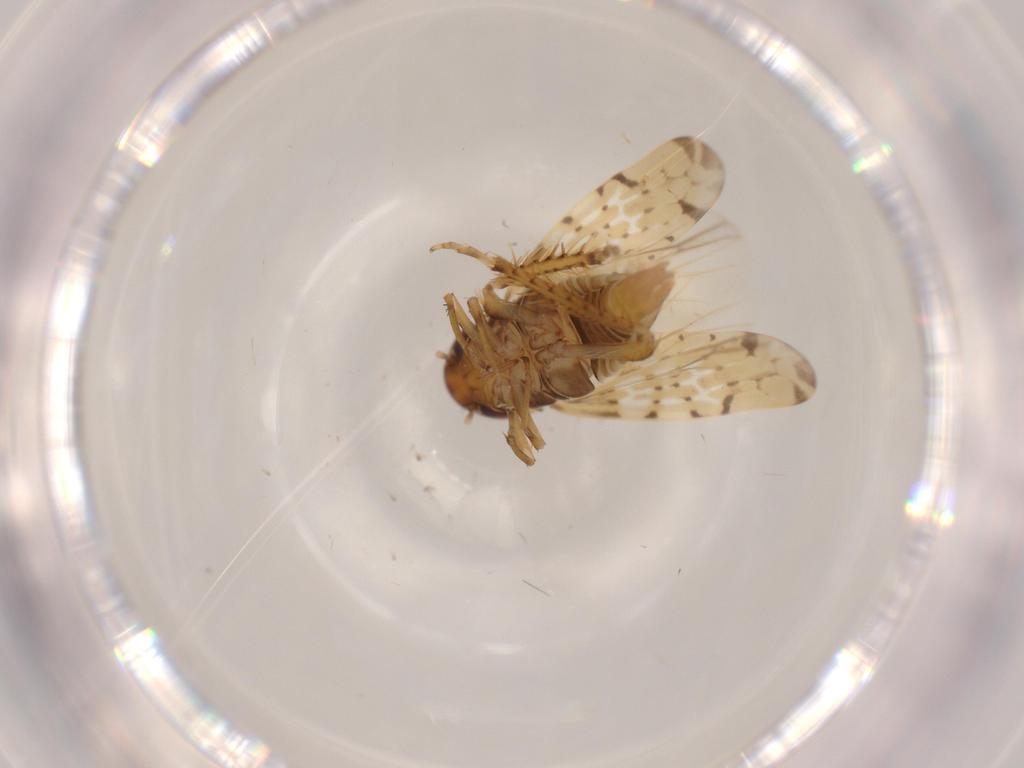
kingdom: Animalia
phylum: Arthropoda
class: Insecta
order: Hemiptera
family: Cicadellidae
